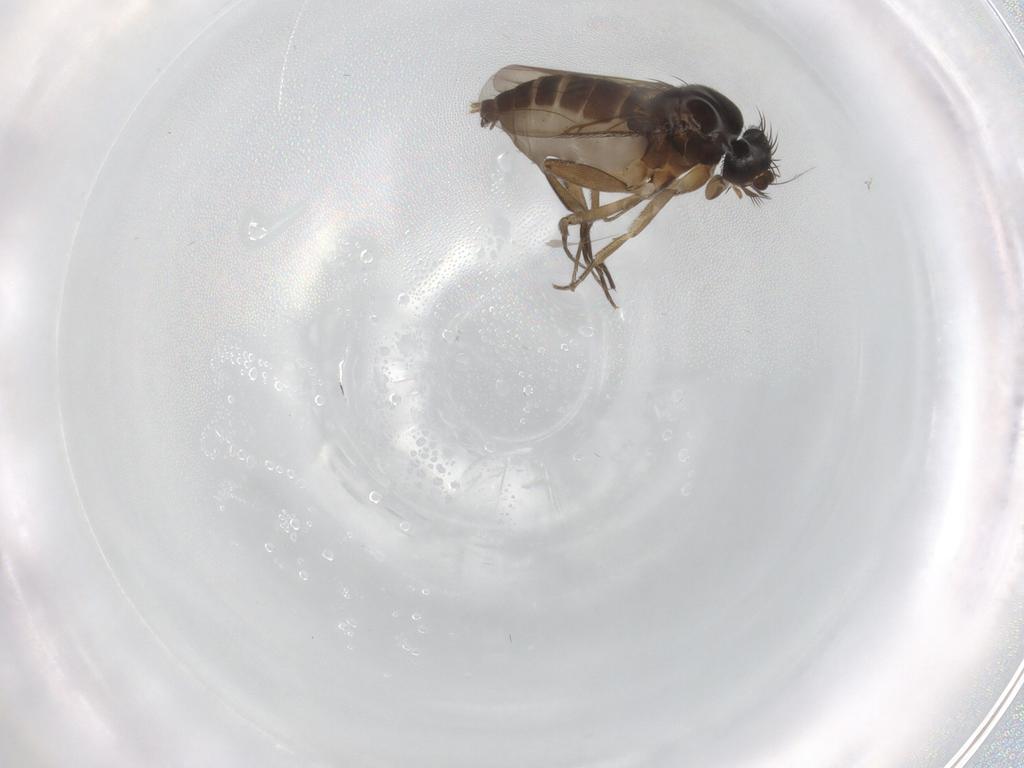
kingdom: Animalia
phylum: Arthropoda
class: Insecta
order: Diptera
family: Phoridae
